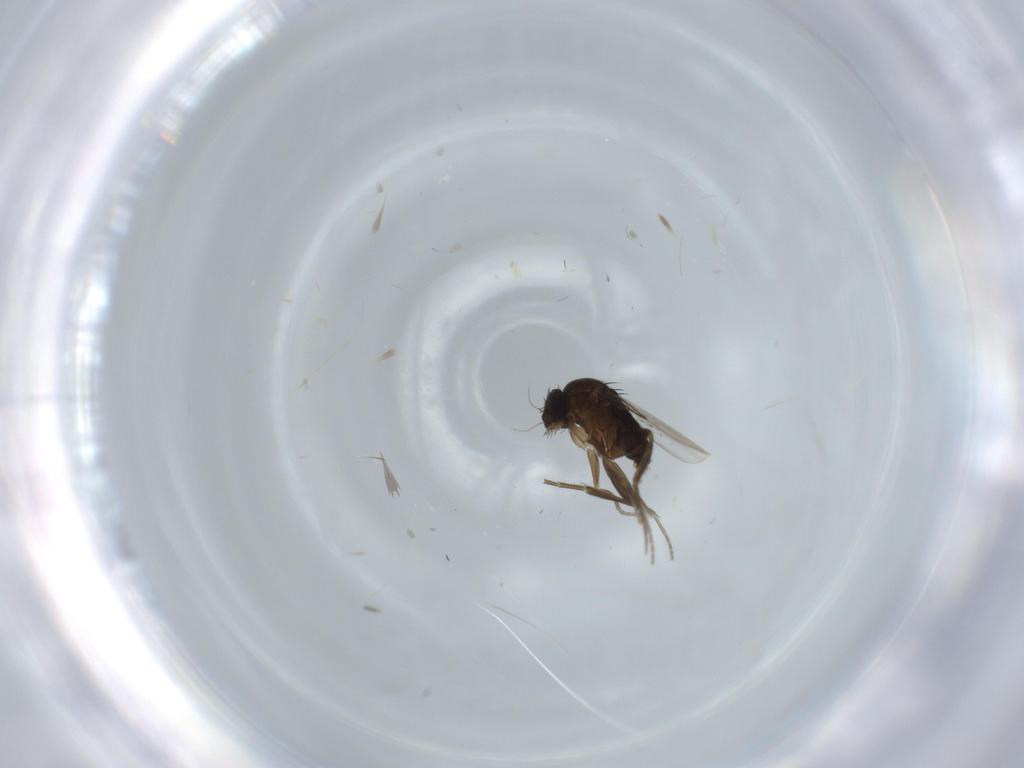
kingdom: Animalia
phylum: Arthropoda
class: Insecta
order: Diptera
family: Phoridae
